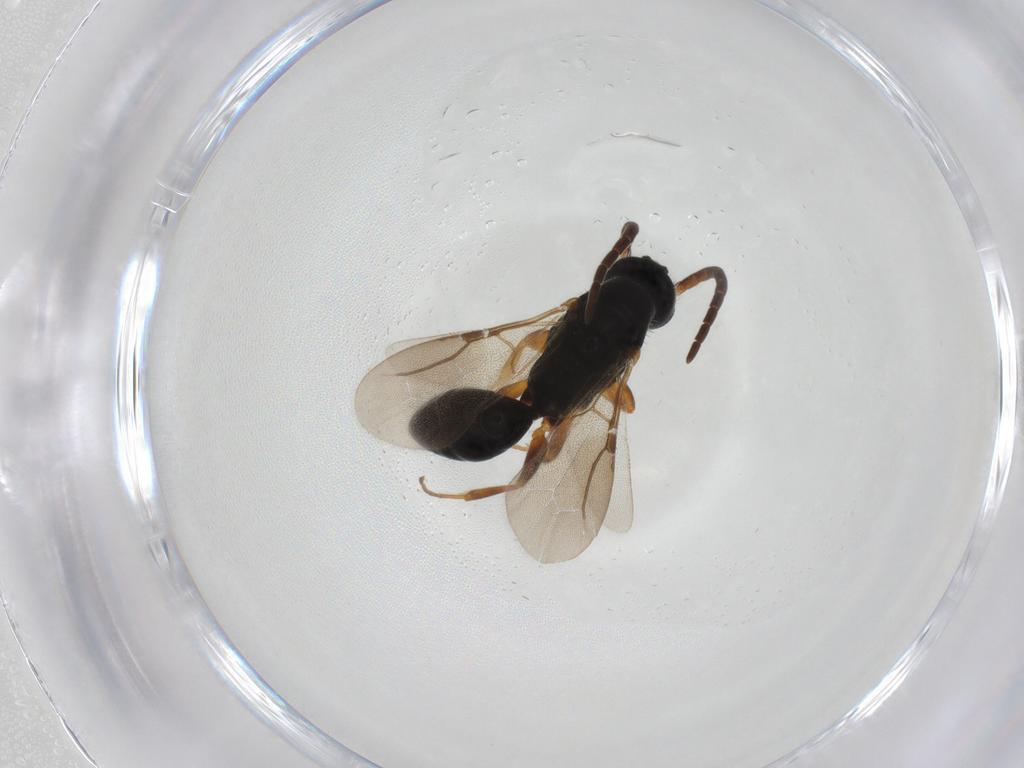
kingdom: Animalia
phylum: Arthropoda
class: Insecta
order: Hymenoptera
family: Bethylidae
